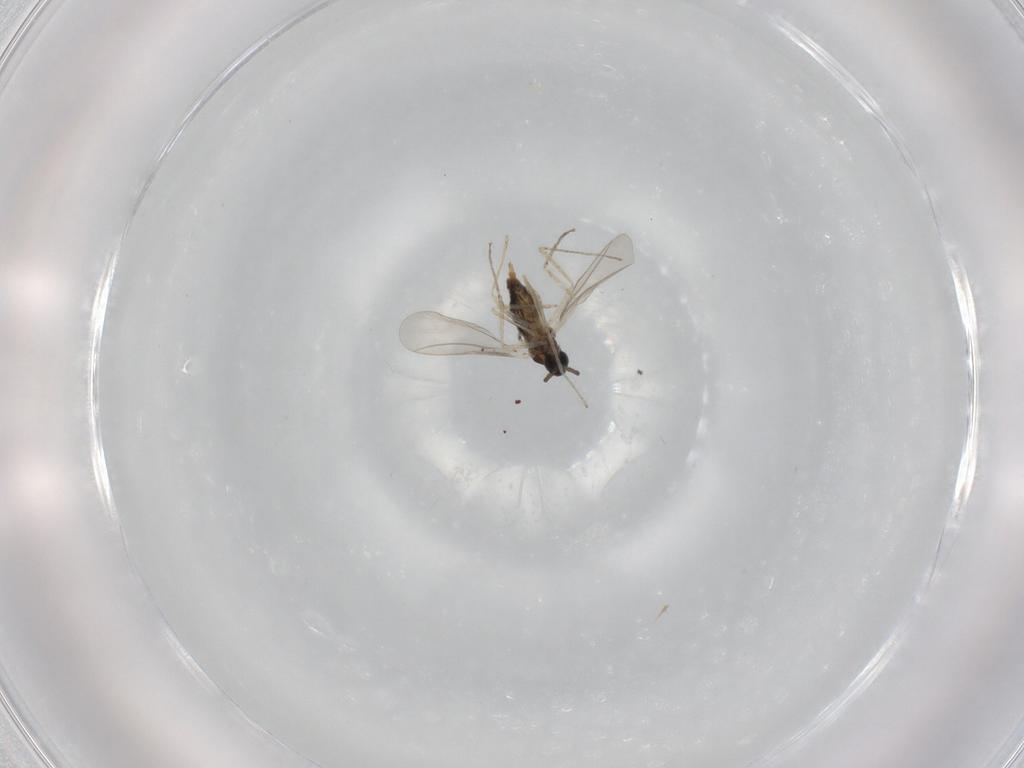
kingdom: Animalia
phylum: Arthropoda
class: Insecta
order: Diptera
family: Cecidomyiidae
